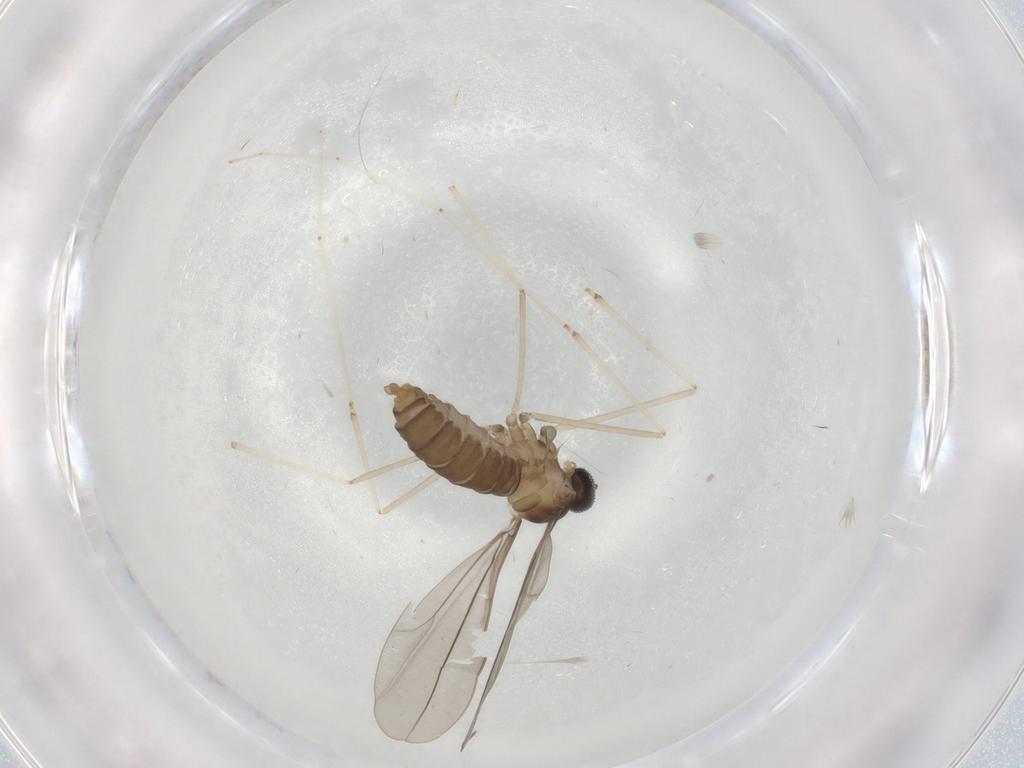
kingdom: Animalia
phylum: Arthropoda
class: Insecta
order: Diptera
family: Cecidomyiidae
